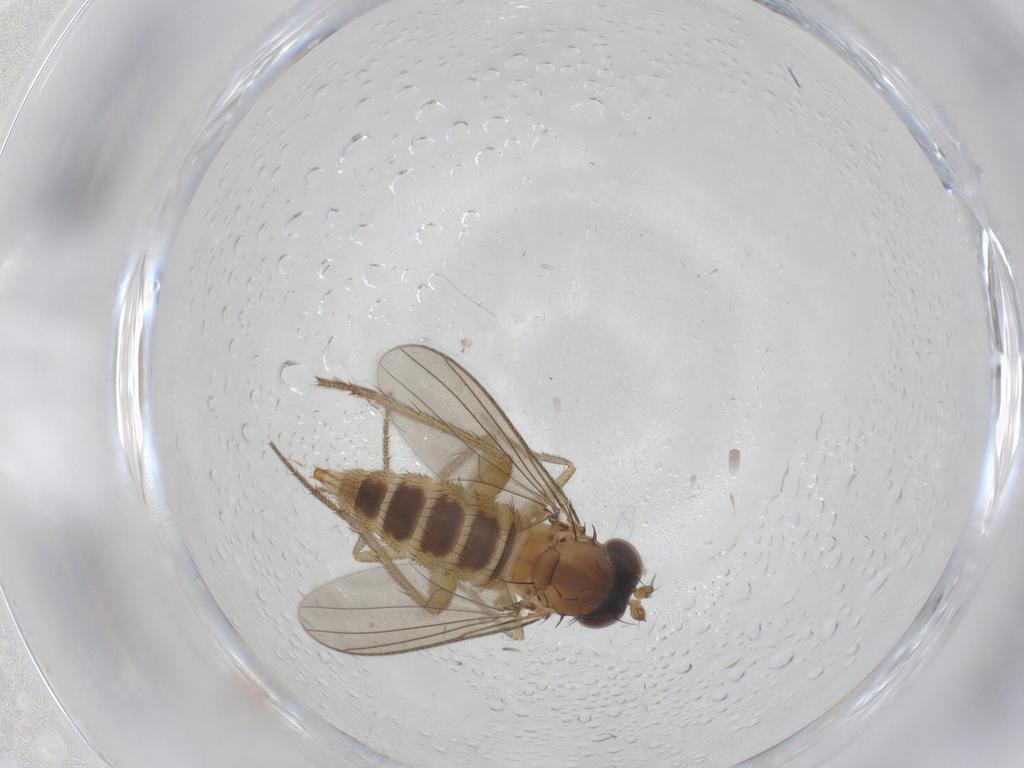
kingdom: Animalia
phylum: Arthropoda
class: Insecta
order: Diptera
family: Dolichopodidae
